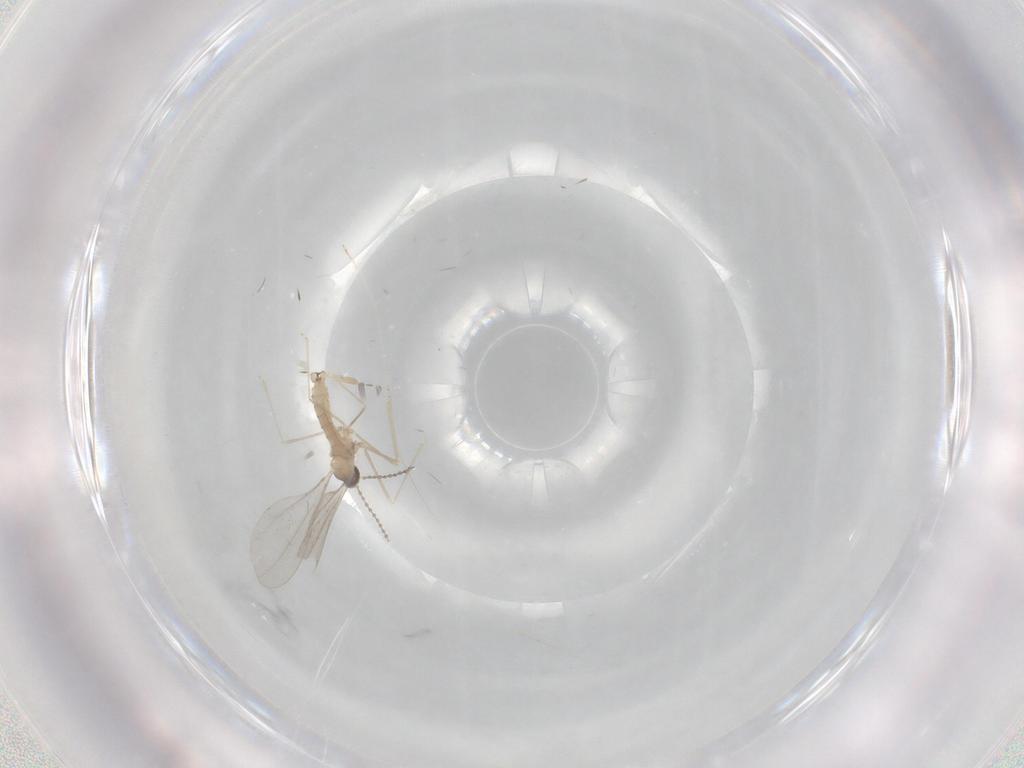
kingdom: Animalia
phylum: Arthropoda
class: Insecta
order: Diptera
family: Cecidomyiidae
